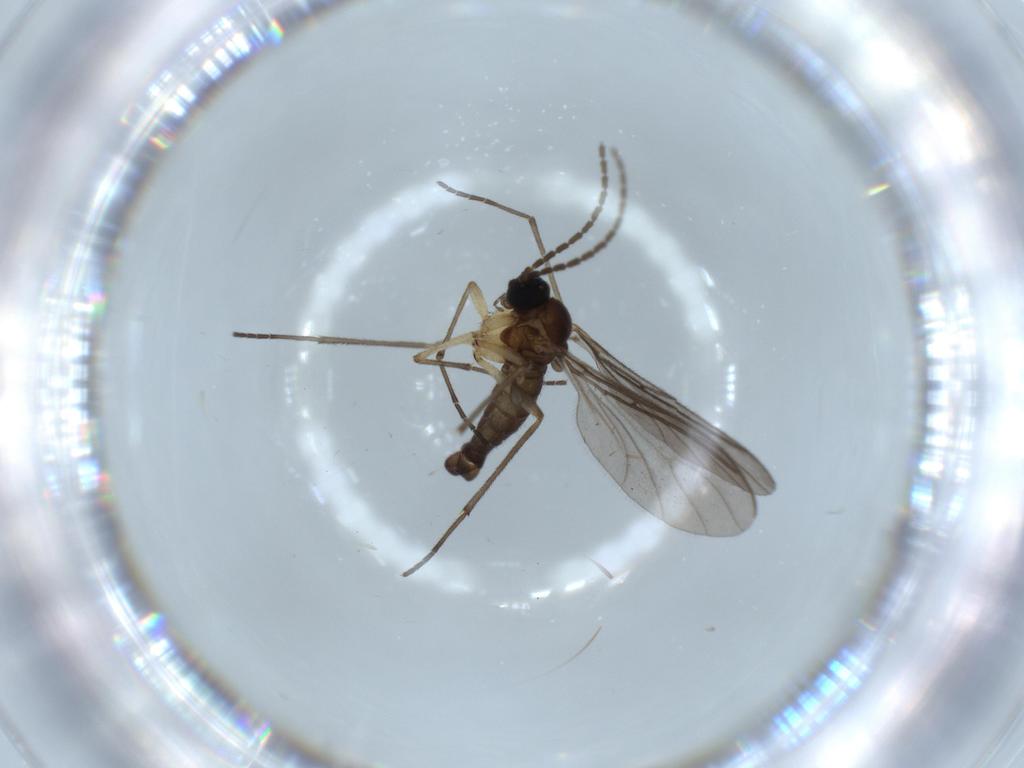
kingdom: Animalia
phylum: Arthropoda
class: Insecta
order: Diptera
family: Sciaridae
